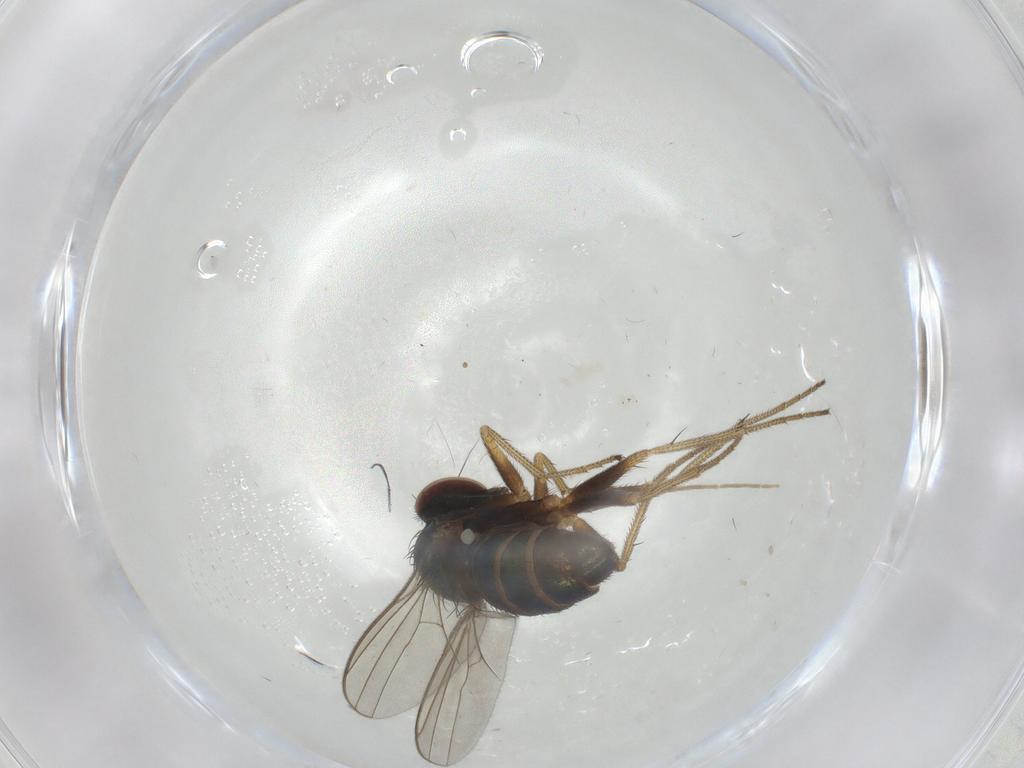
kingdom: Animalia
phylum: Arthropoda
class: Insecta
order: Diptera
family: Chironomidae
